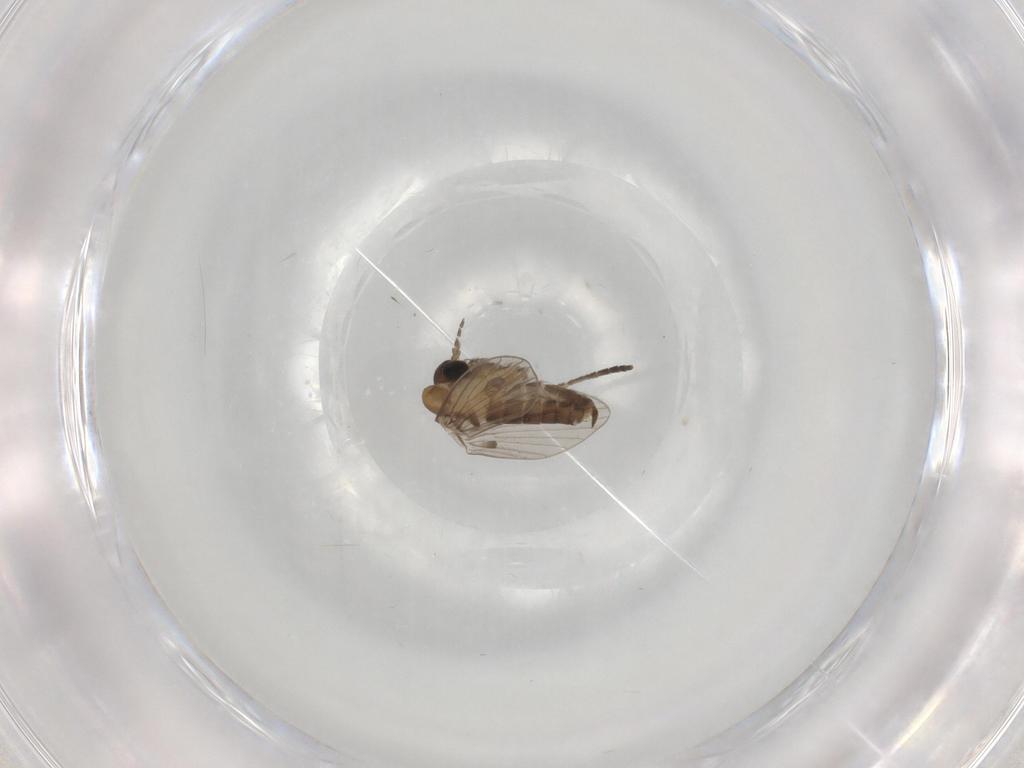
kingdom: Animalia
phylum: Arthropoda
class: Insecta
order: Diptera
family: Psychodidae
